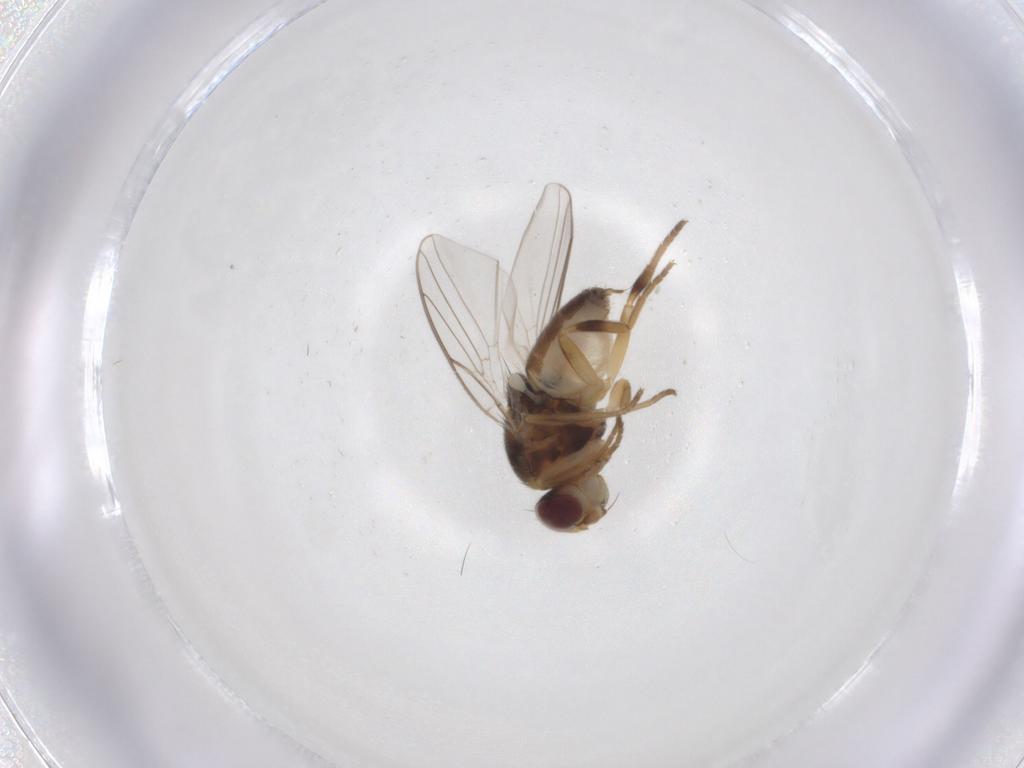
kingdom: Animalia
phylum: Arthropoda
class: Insecta
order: Diptera
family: Chloropidae
